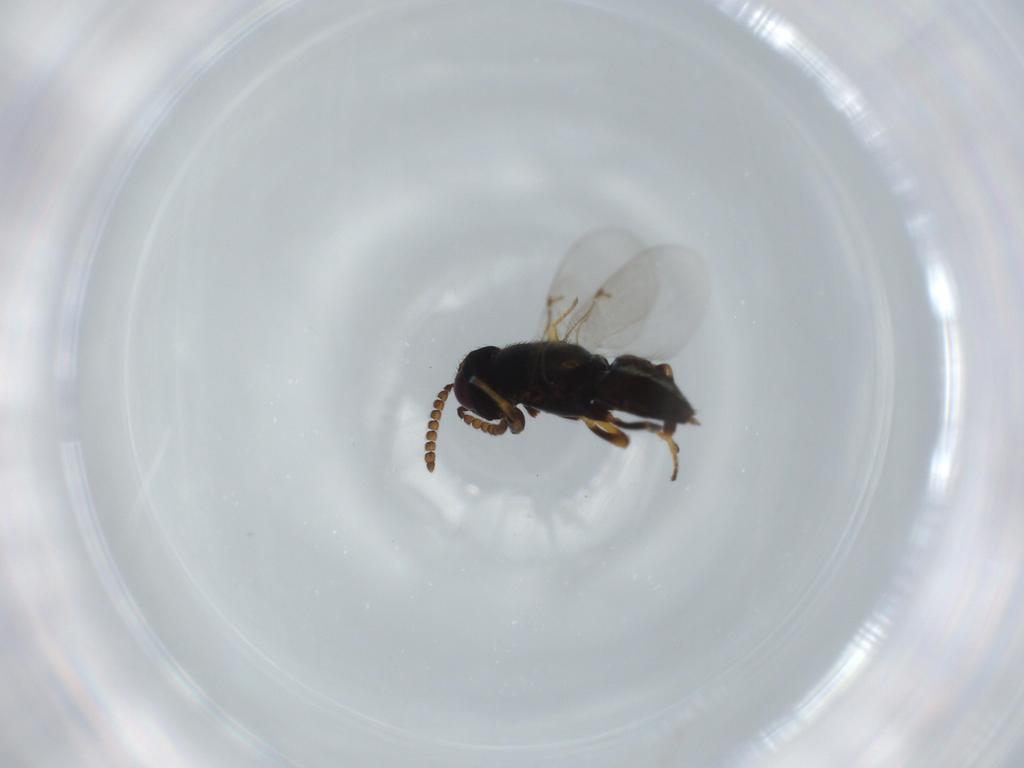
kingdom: Animalia
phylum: Arthropoda
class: Insecta
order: Hymenoptera
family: Encyrtidae
